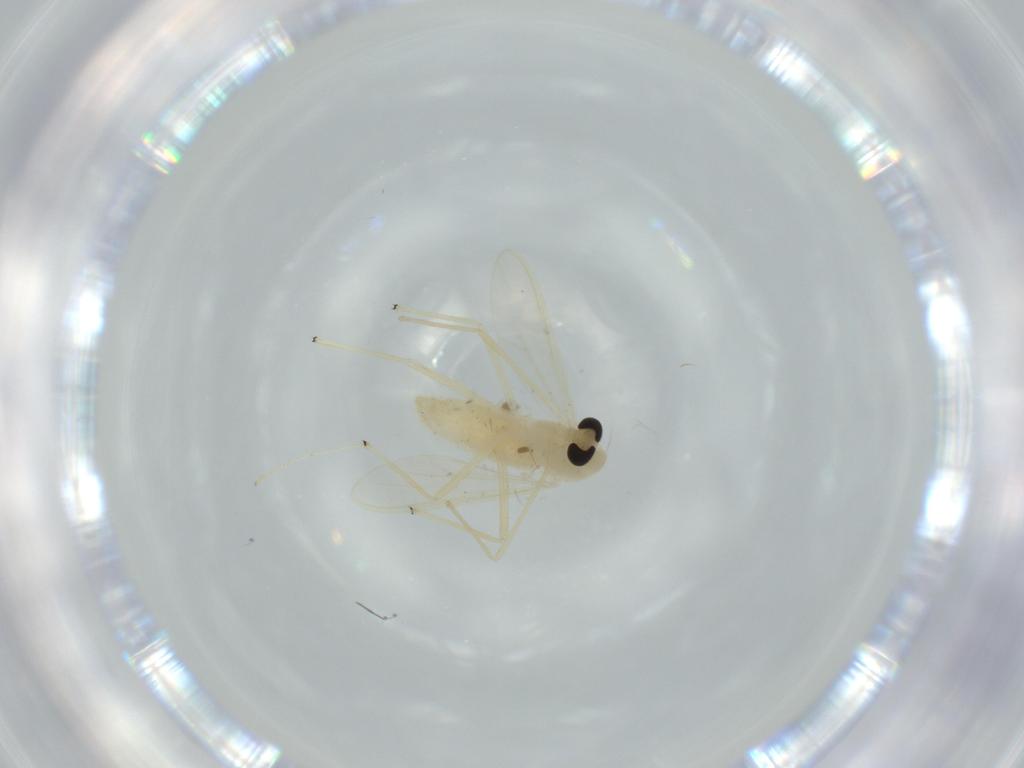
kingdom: Animalia
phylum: Arthropoda
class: Insecta
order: Diptera
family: Chironomidae
